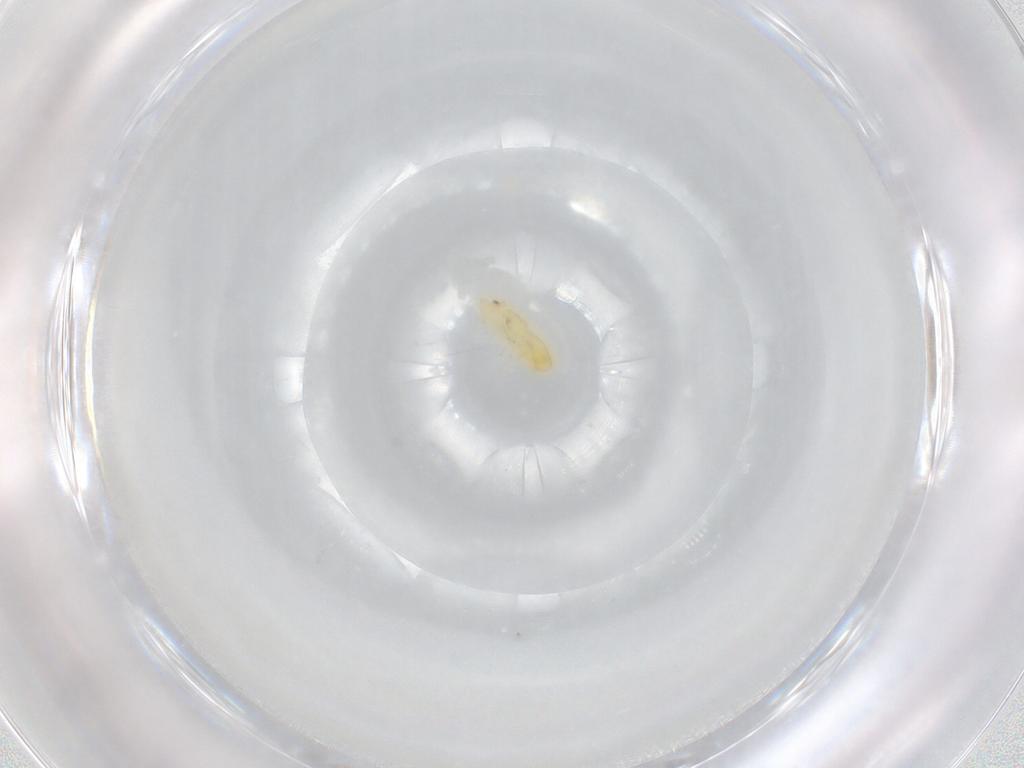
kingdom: Animalia
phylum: Arthropoda
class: Insecta
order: Hemiptera
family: Delphacidae
